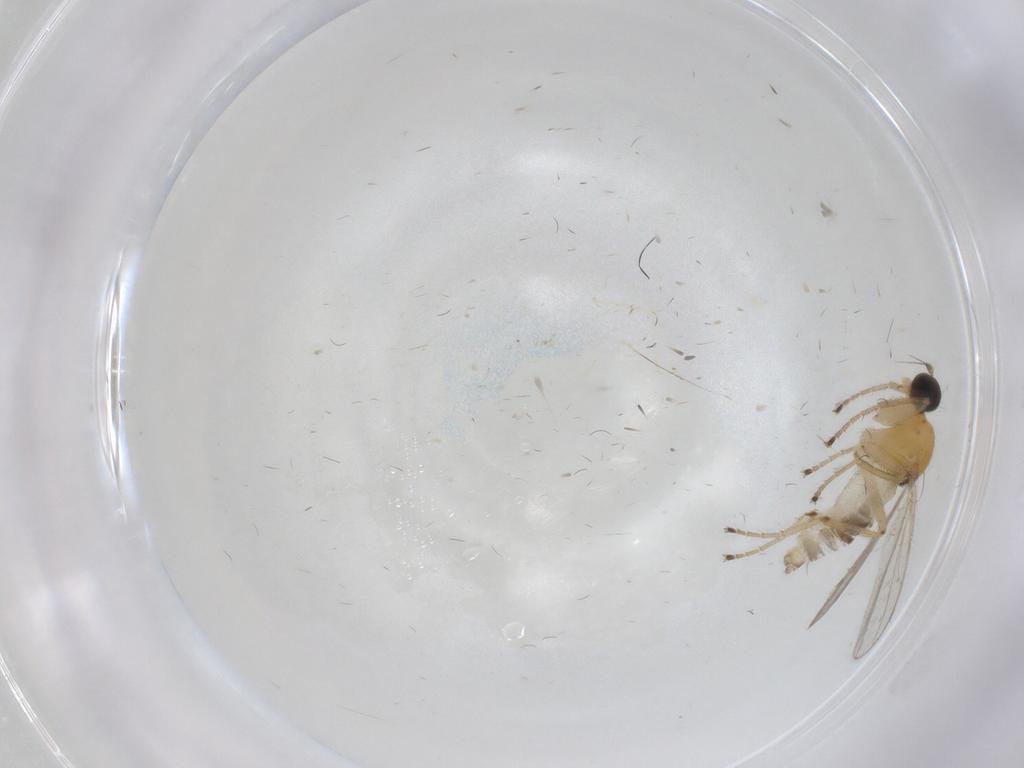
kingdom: Animalia
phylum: Arthropoda
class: Insecta
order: Diptera
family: Hybotidae
